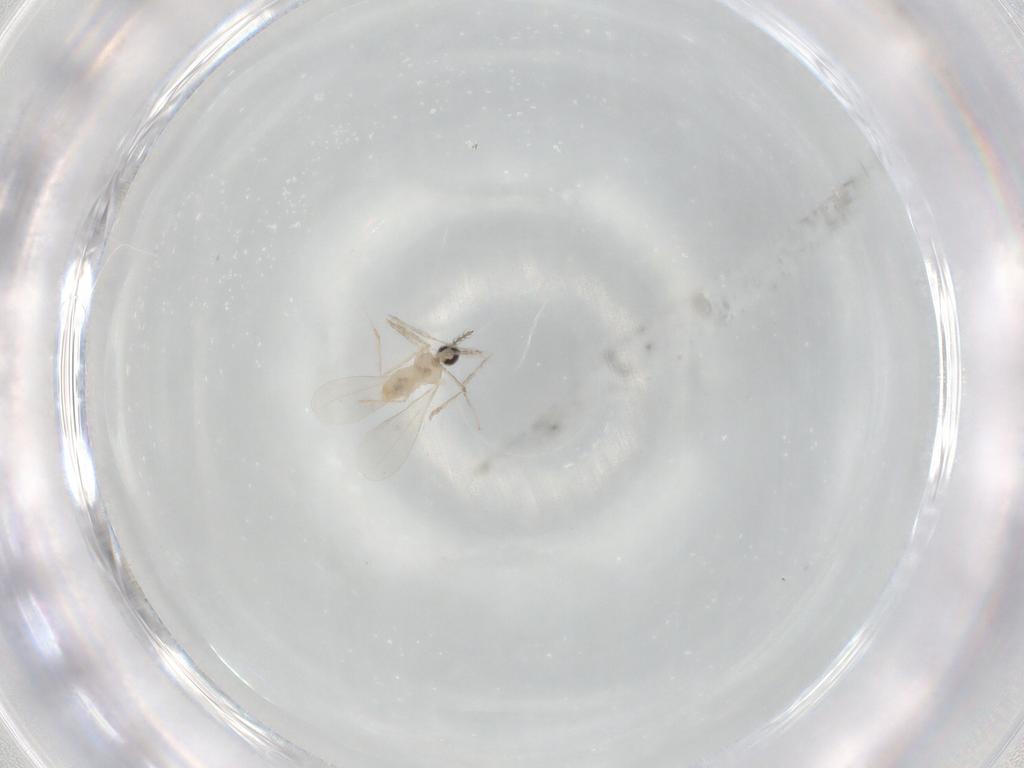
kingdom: Animalia
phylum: Arthropoda
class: Insecta
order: Diptera
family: Cecidomyiidae
